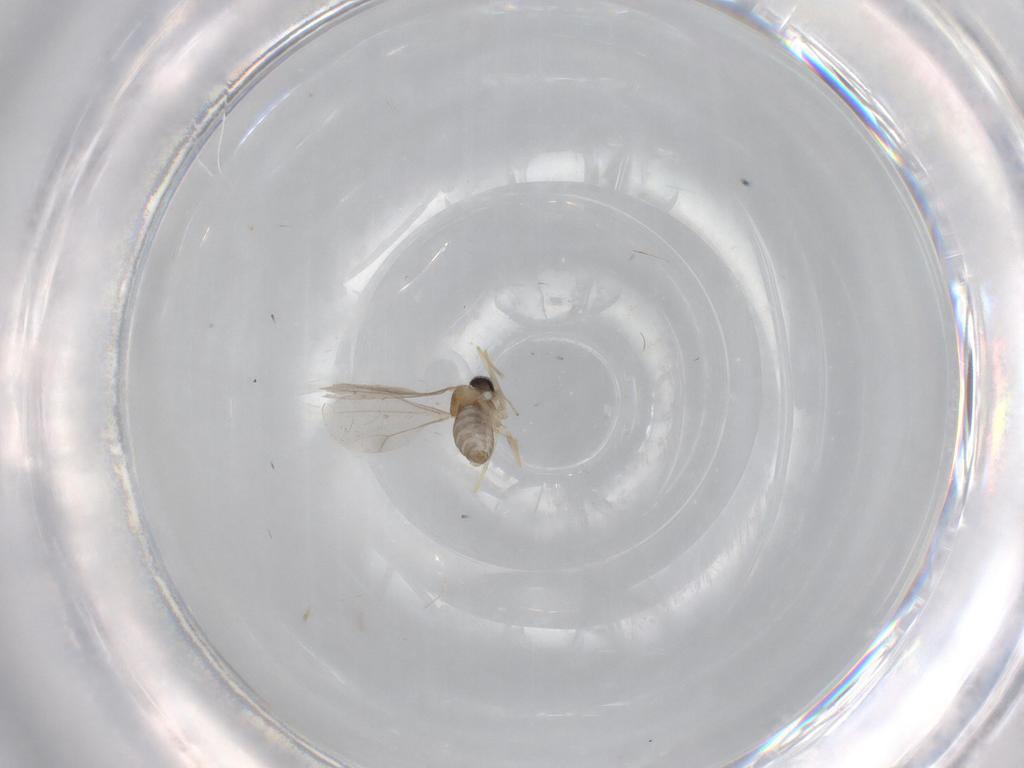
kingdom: Animalia
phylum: Arthropoda
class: Insecta
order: Diptera
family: Cecidomyiidae
